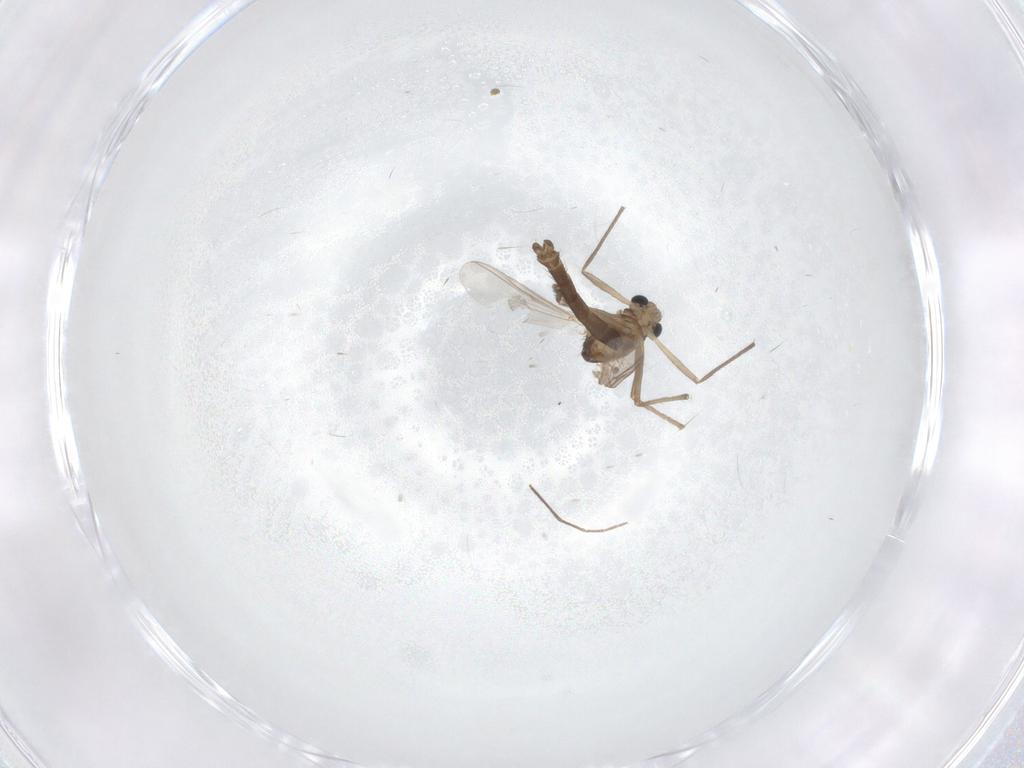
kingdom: Animalia
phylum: Arthropoda
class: Insecta
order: Diptera
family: Chironomidae
